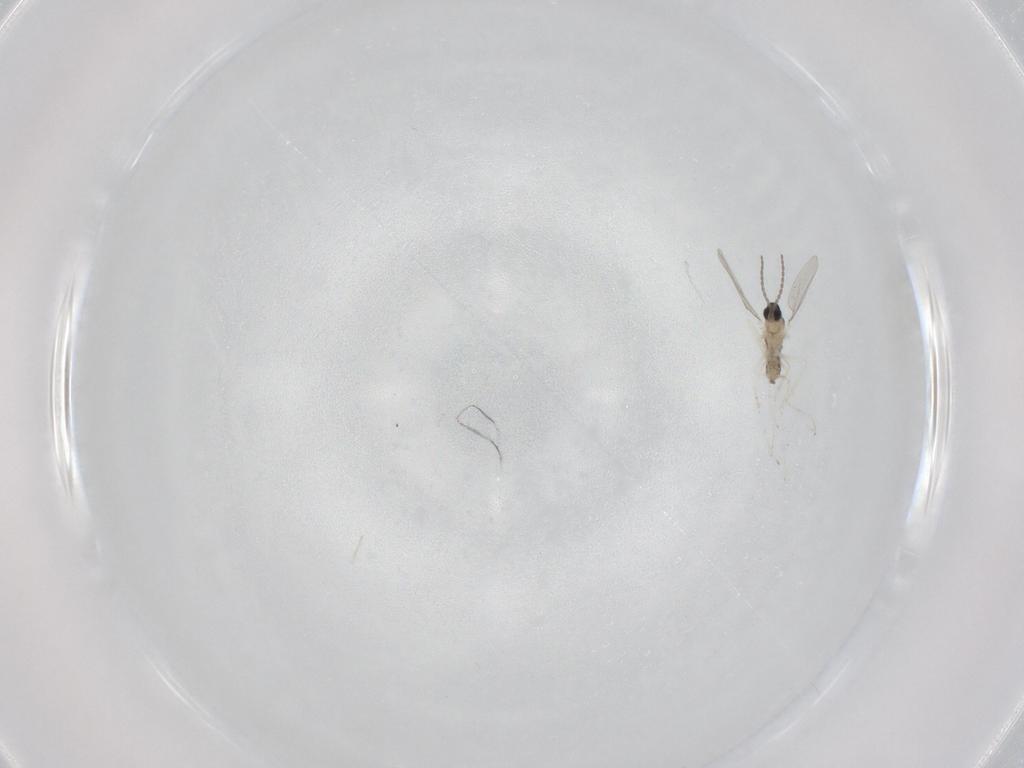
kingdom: Animalia
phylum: Arthropoda
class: Insecta
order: Diptera
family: Cecidomyiidae
